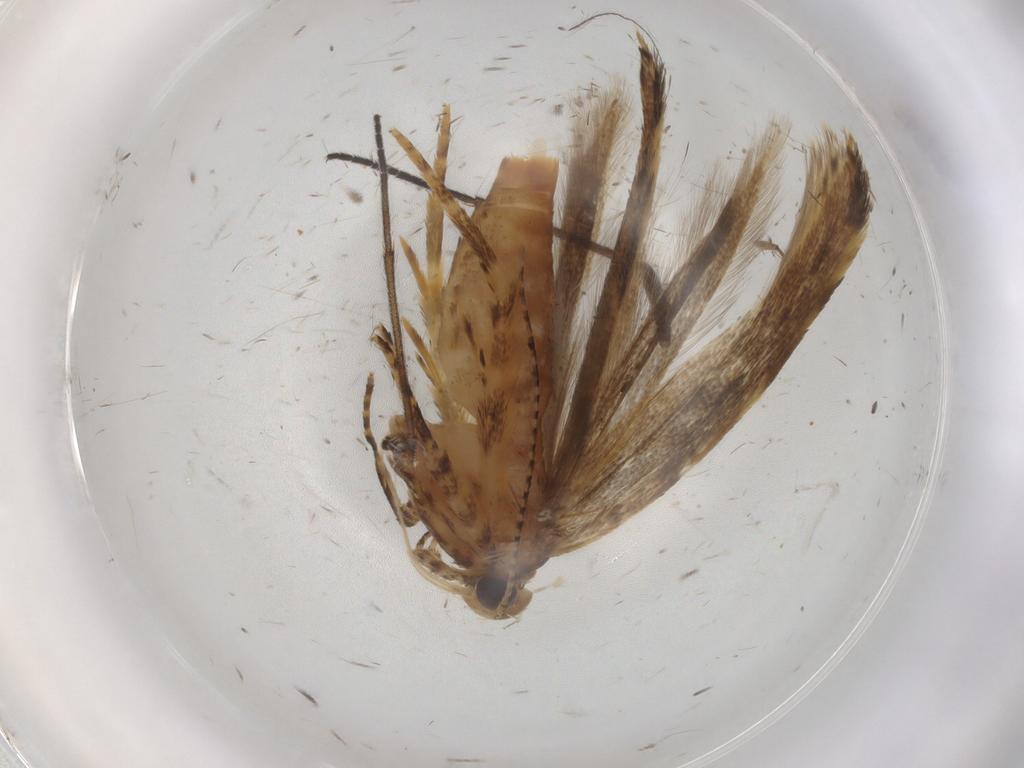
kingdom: Animalia
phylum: Arthropoda
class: Insecta
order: Lepidoptera
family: Gelechiidae
